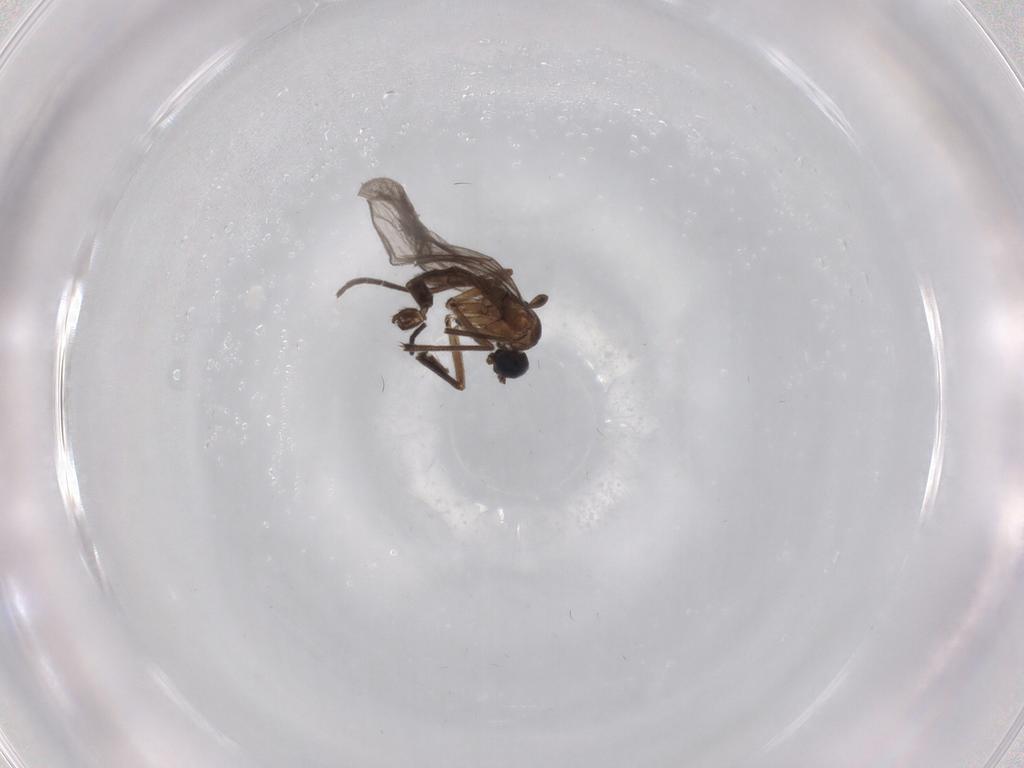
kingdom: Animalia
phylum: Arthropoda
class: Insecta
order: Diptera
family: Sciaridae
